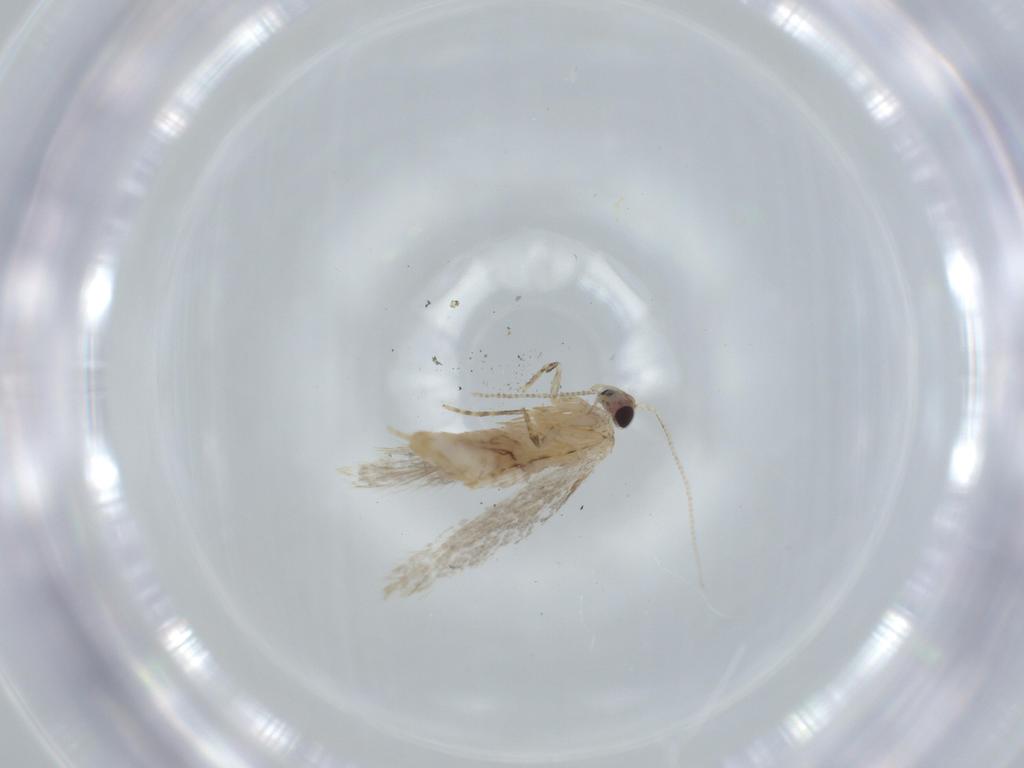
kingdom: Animalia
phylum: Arthropoda
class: Insecta
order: Lepidoptera
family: Tineidae
